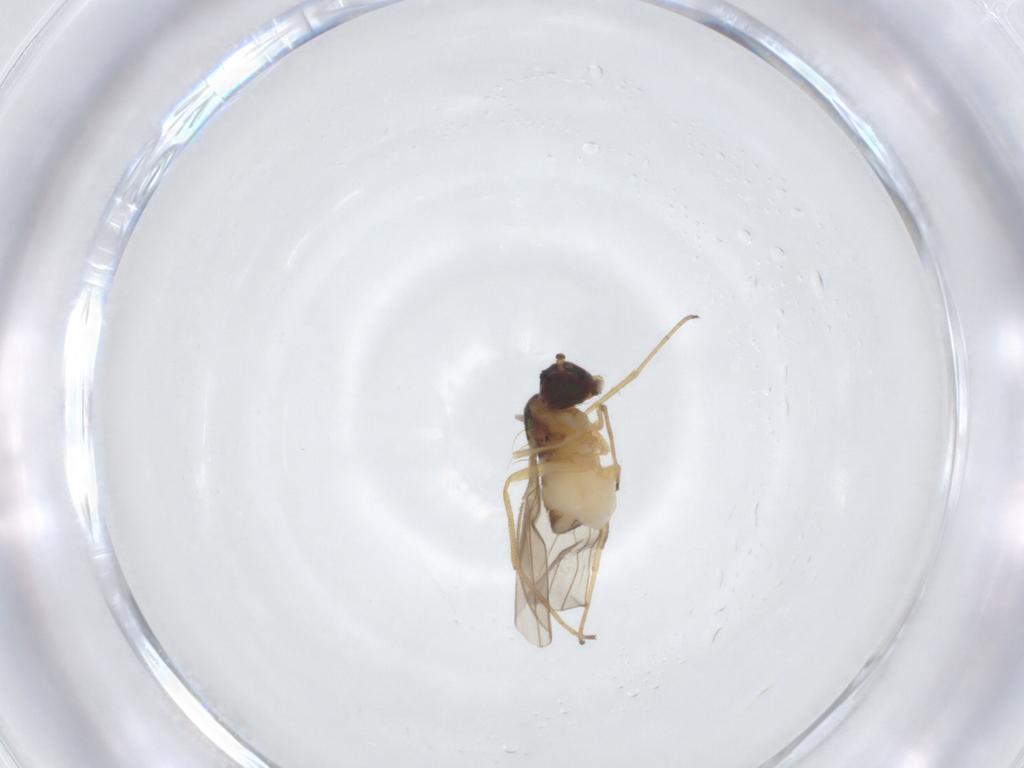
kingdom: Animalia
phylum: Arthropoda
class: Insecta
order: Diptera
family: Dolichopodidae
